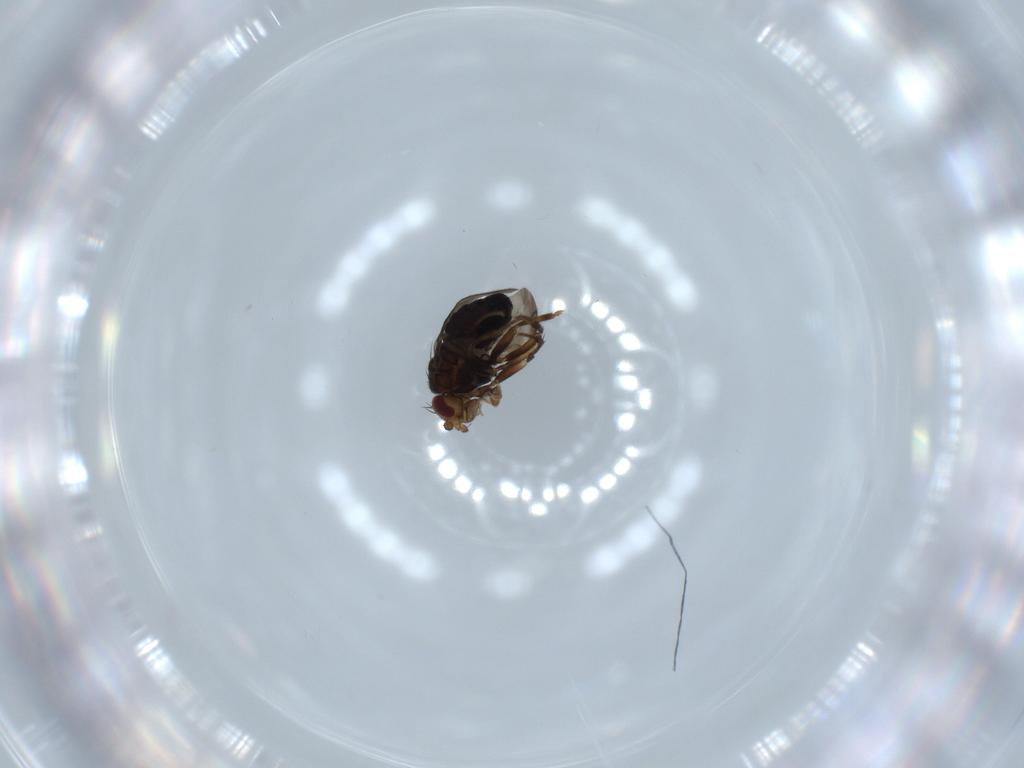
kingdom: Animalia
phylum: Arthropoda
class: Insecta
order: Diptera
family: Sphaeroceridae
